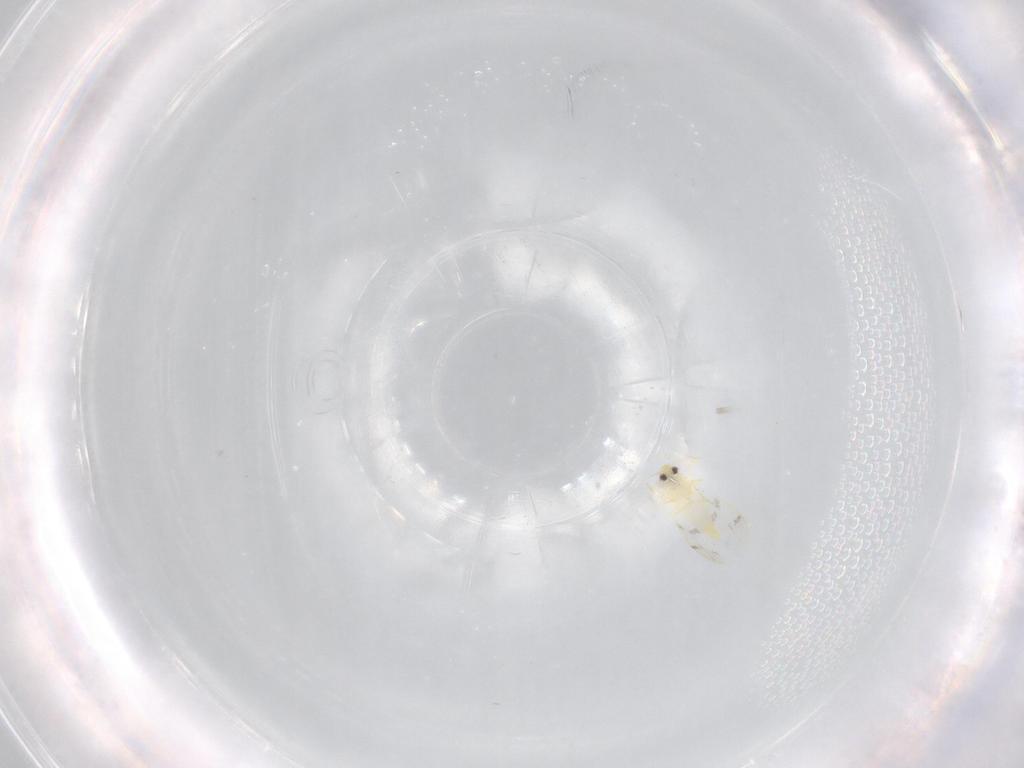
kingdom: Animalia
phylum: Arthropoda
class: Insecta
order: Hemiptera
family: Aleyrodidae
